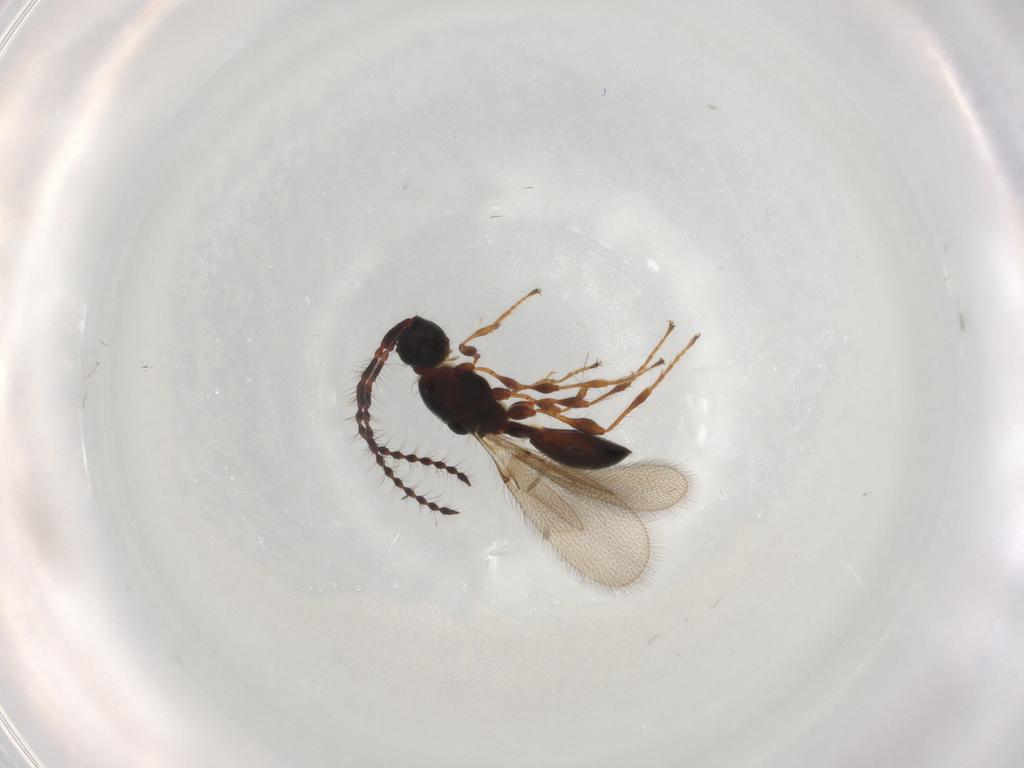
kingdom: Animalia
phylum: Arthropoda
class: Insecta
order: Hymenoptera
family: Diapriidae
